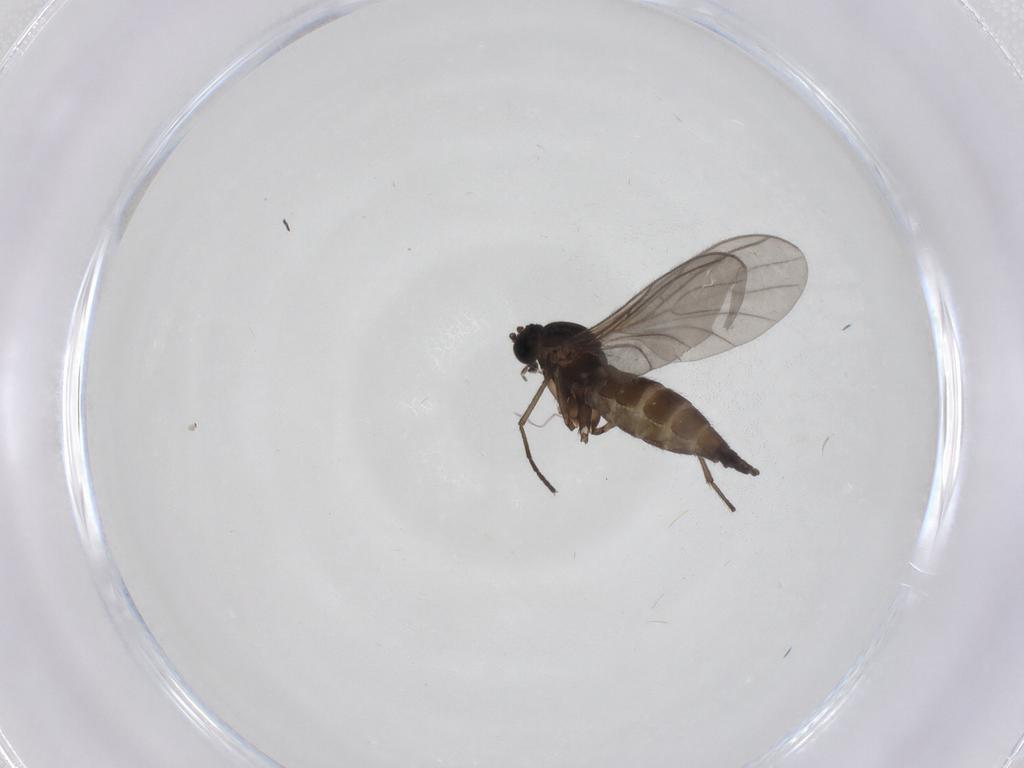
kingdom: Animalia
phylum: Arthropoda
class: Insecta
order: Diptera
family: Sciaridae
